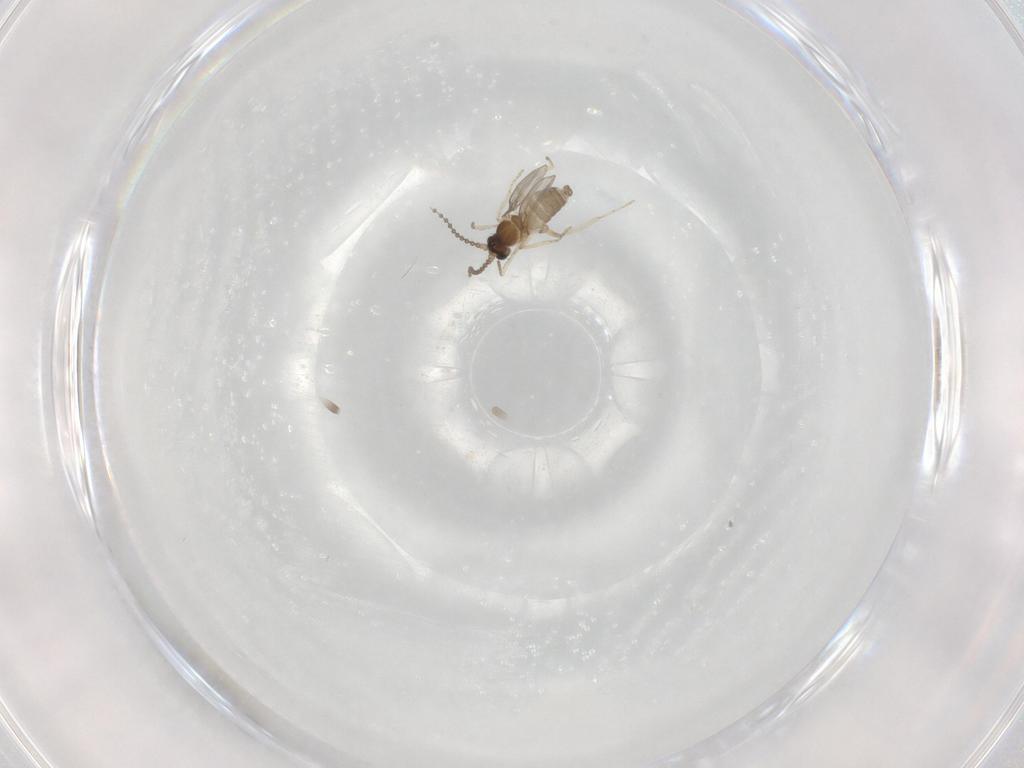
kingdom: Animalia
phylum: Arthropoda
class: Insecta
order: Diptera
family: Cecidomyiidae
